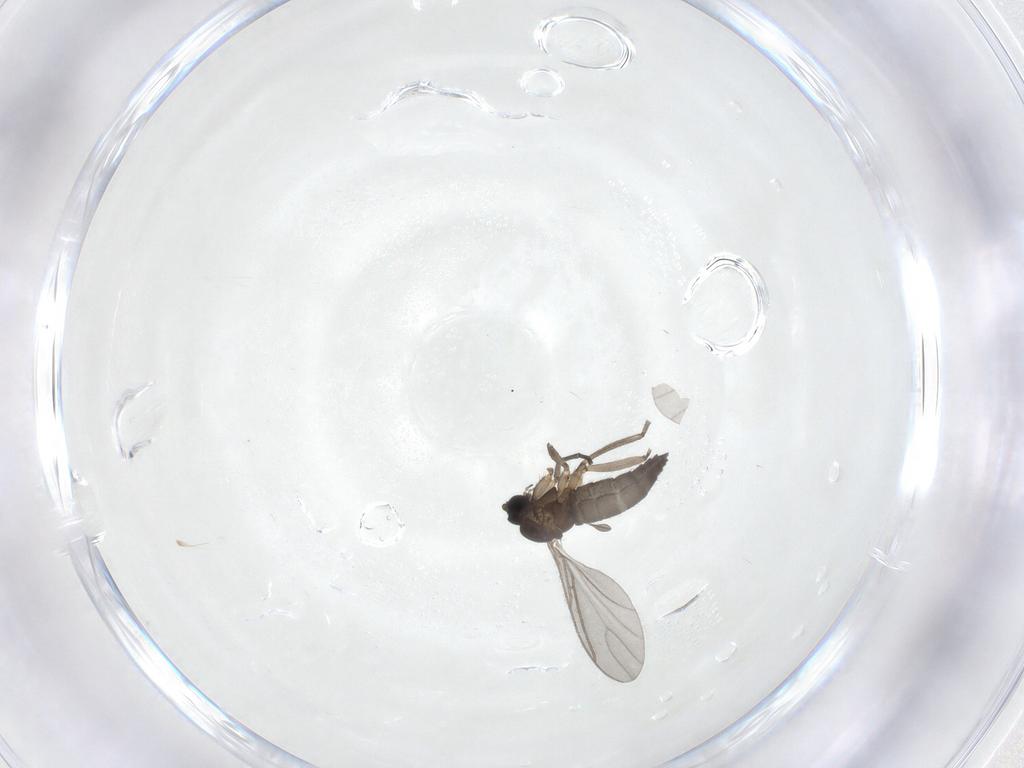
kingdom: Animalia
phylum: Arthropoda
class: Insecta
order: Diptera
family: Sciaridae
